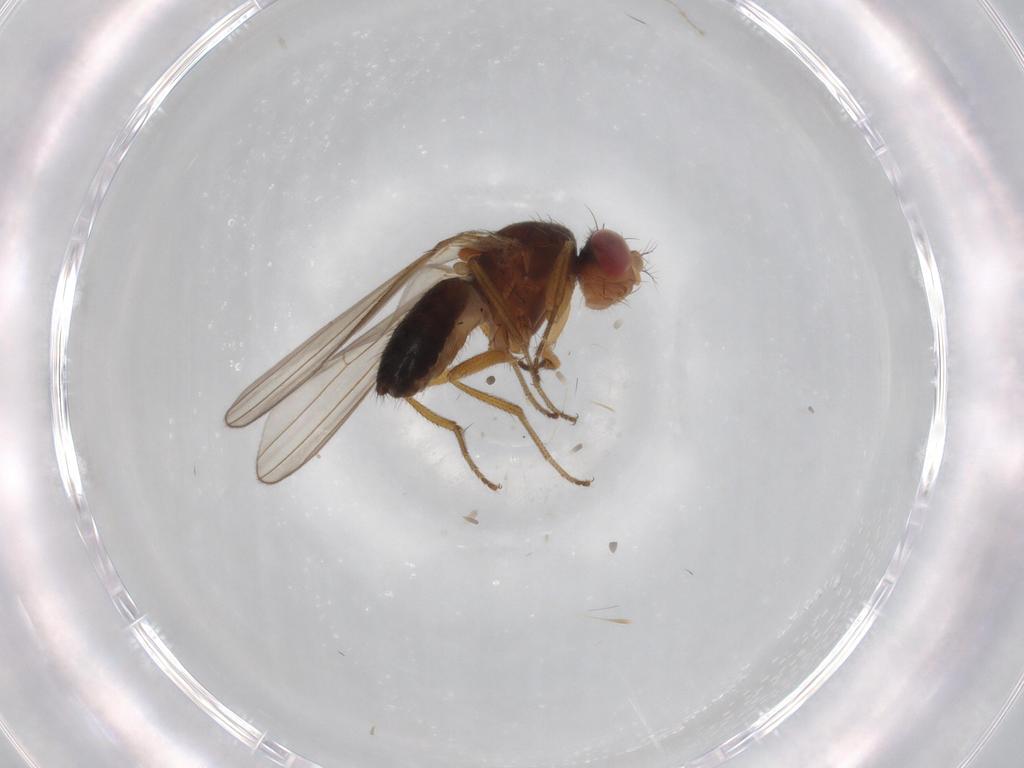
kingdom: Animalia
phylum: Arthropoda
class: Insecta
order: Diptera
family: Drosophilidae
